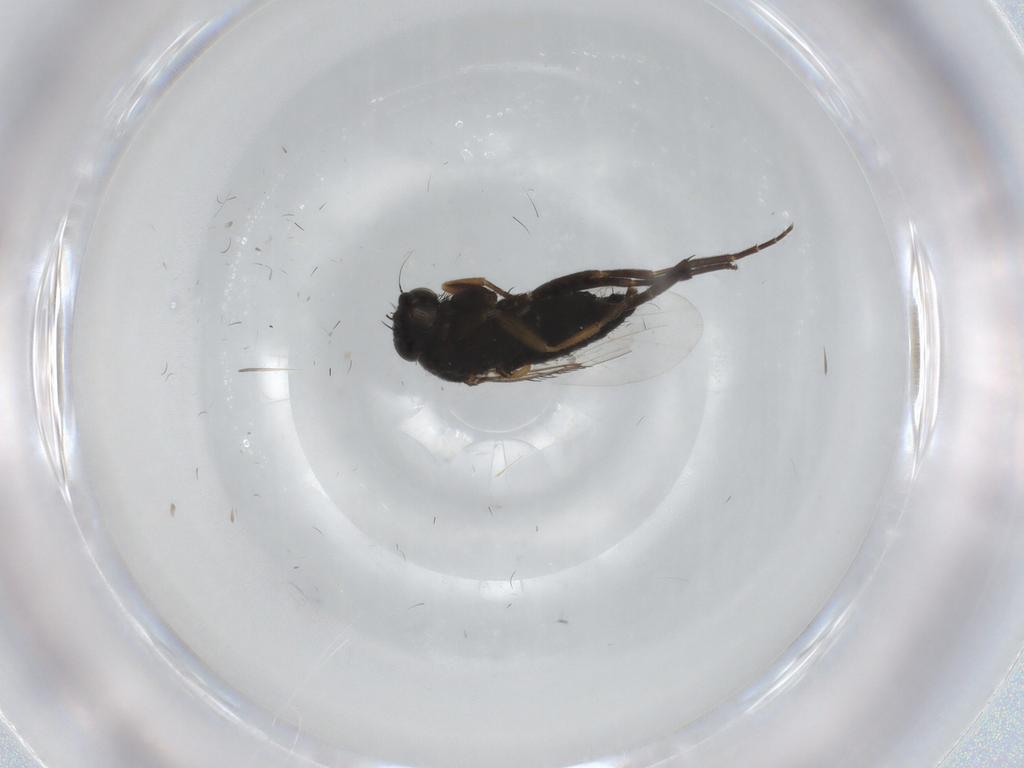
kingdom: Animalia
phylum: Arthropoda
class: Insecta
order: Diptera
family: Phoridae
